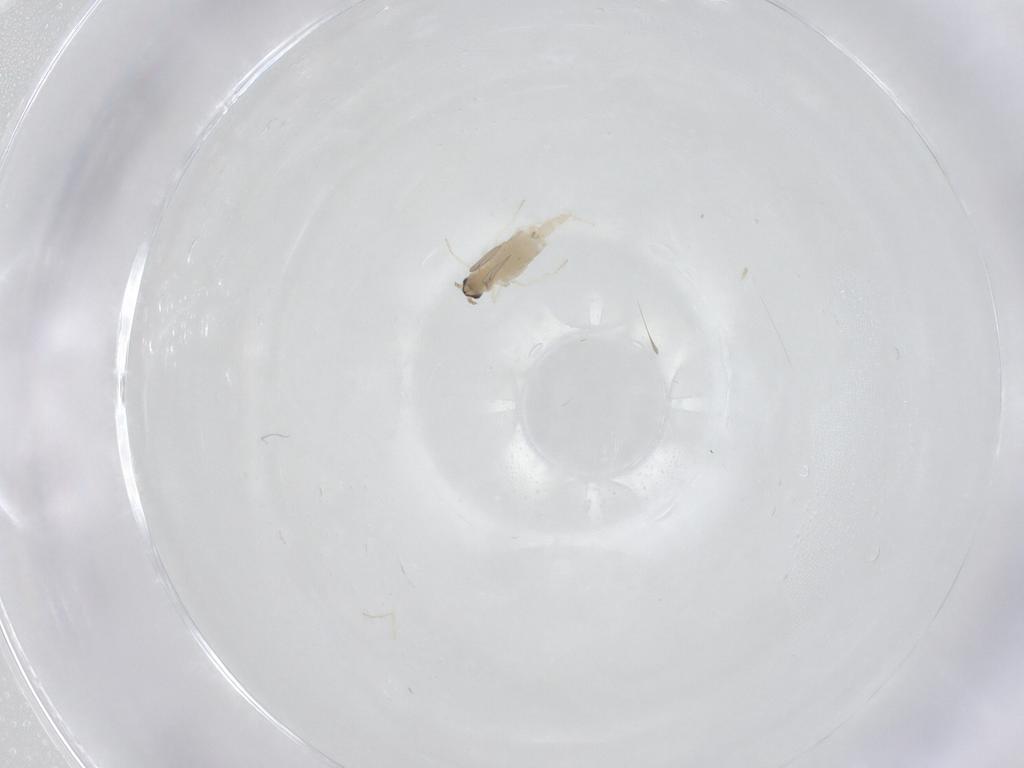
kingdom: Animalia
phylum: Arthropoda
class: Insecta
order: Diptera
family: Cecidomyiidae
